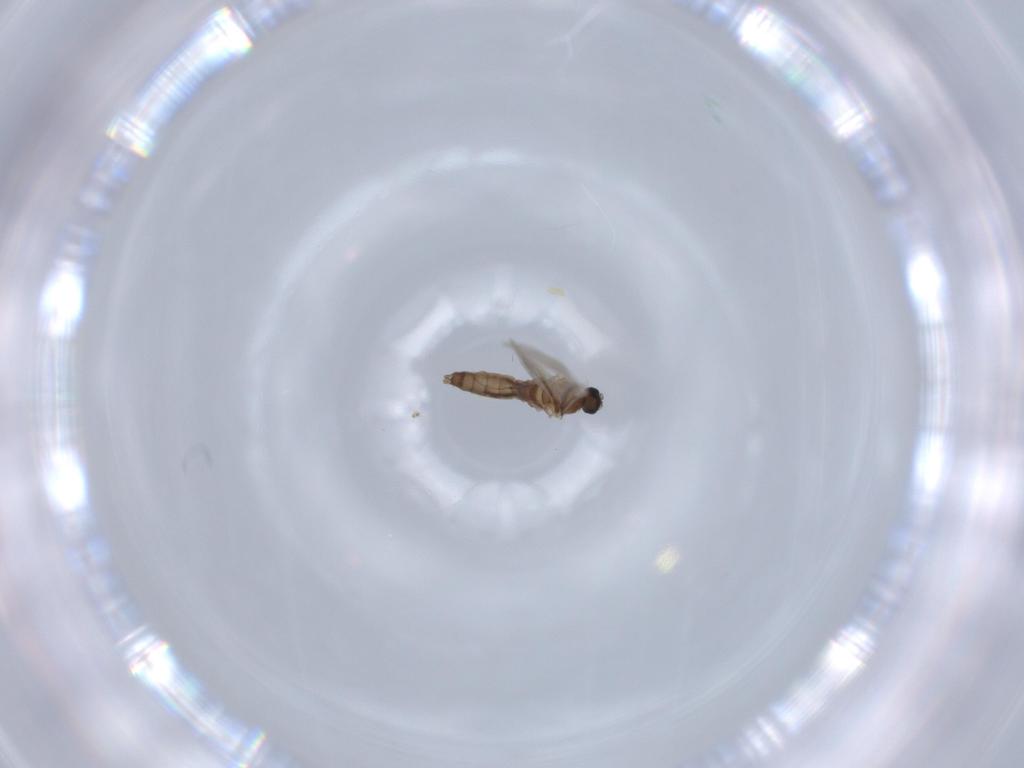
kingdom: Animalia
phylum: Arthropoda
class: Insecta
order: Diptera
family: Cecidomyiidae
